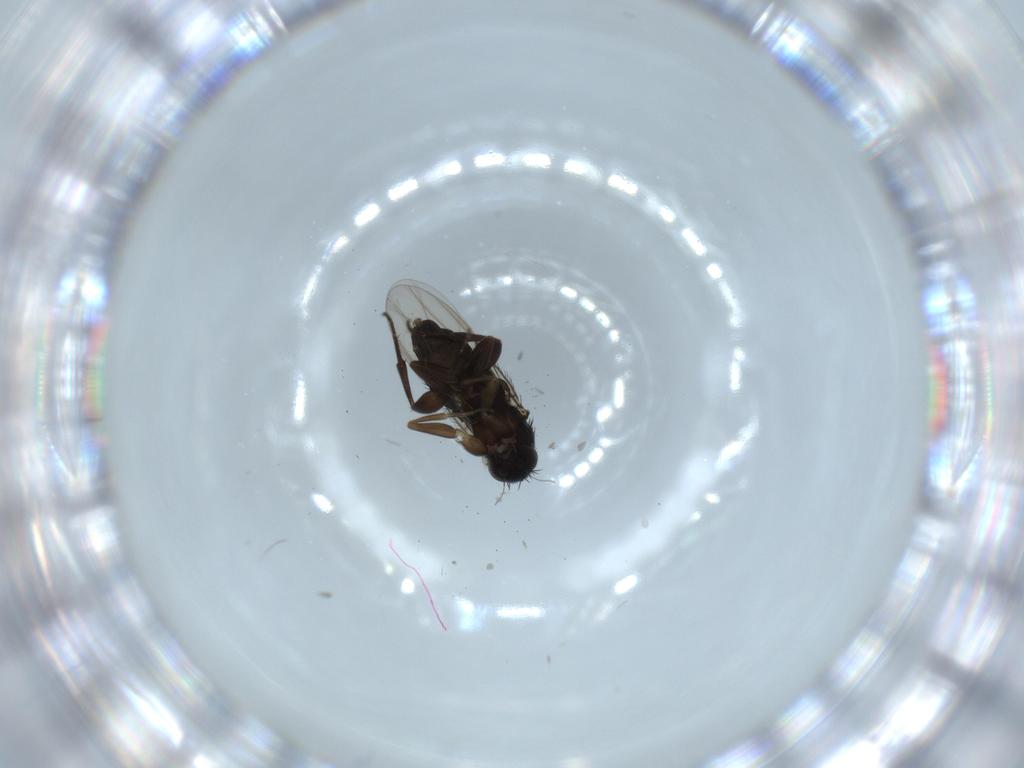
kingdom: Animalia
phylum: Arthropoda
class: Insecta
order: Diptera
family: Phoridae
